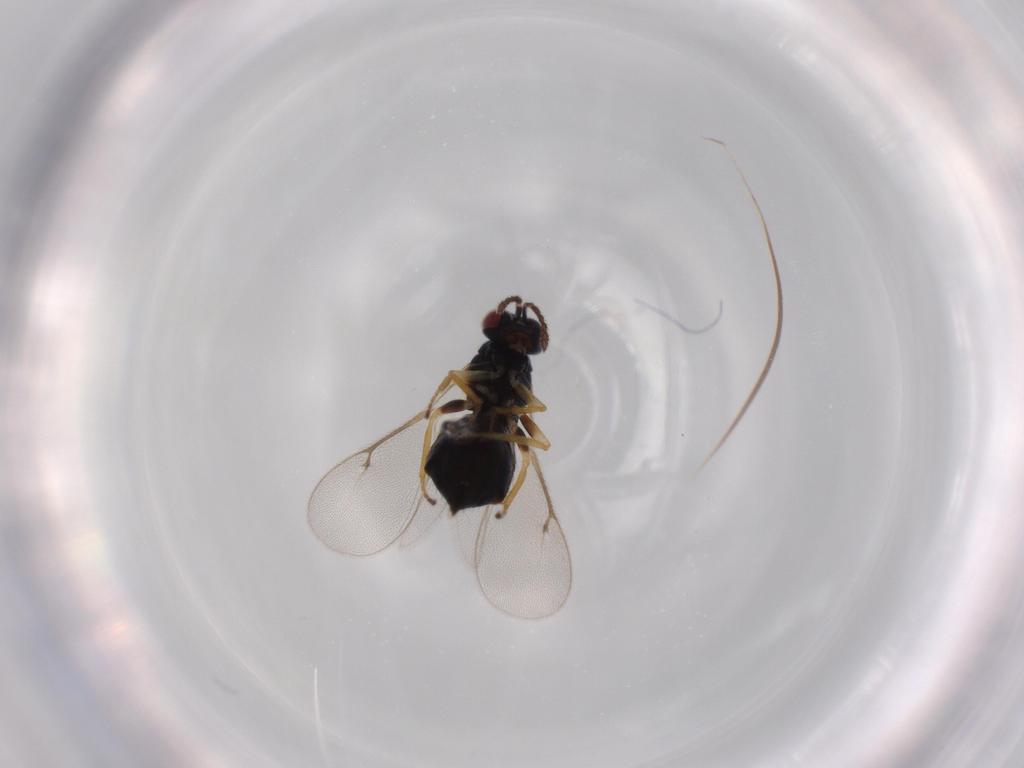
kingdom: Animalia
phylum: Arthropoda
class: Insecta
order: Hymenoptera
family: Eulophidae
